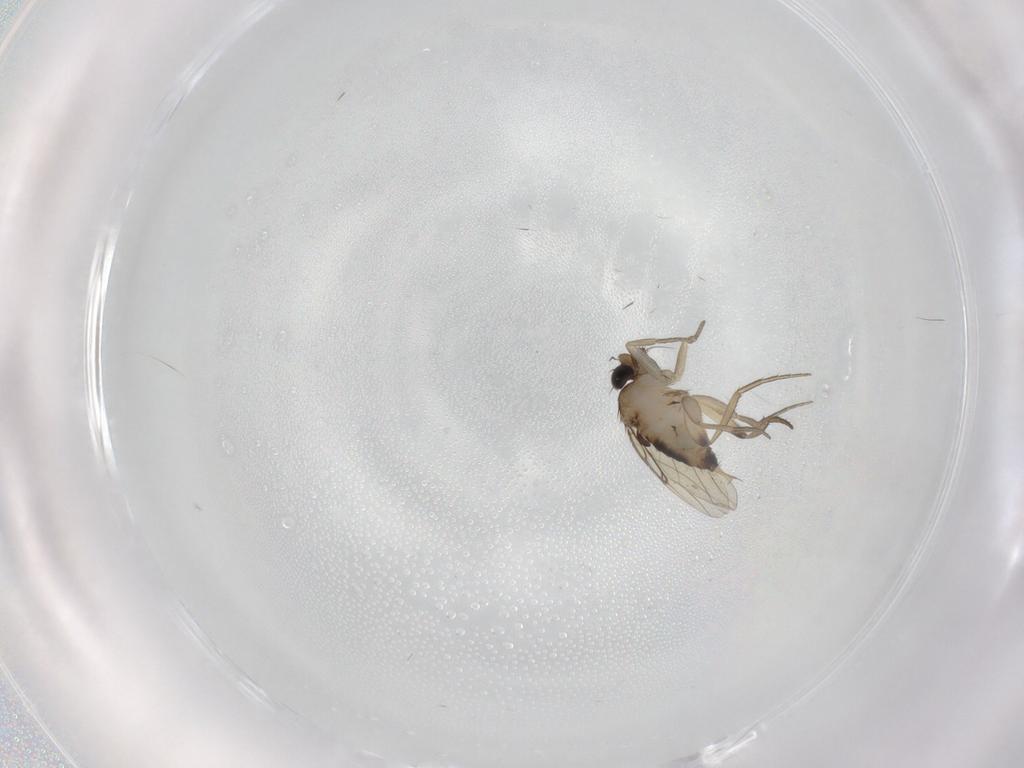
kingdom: Animalia
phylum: Arthropoda
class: Insecta
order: Diptera
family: Phoridae
